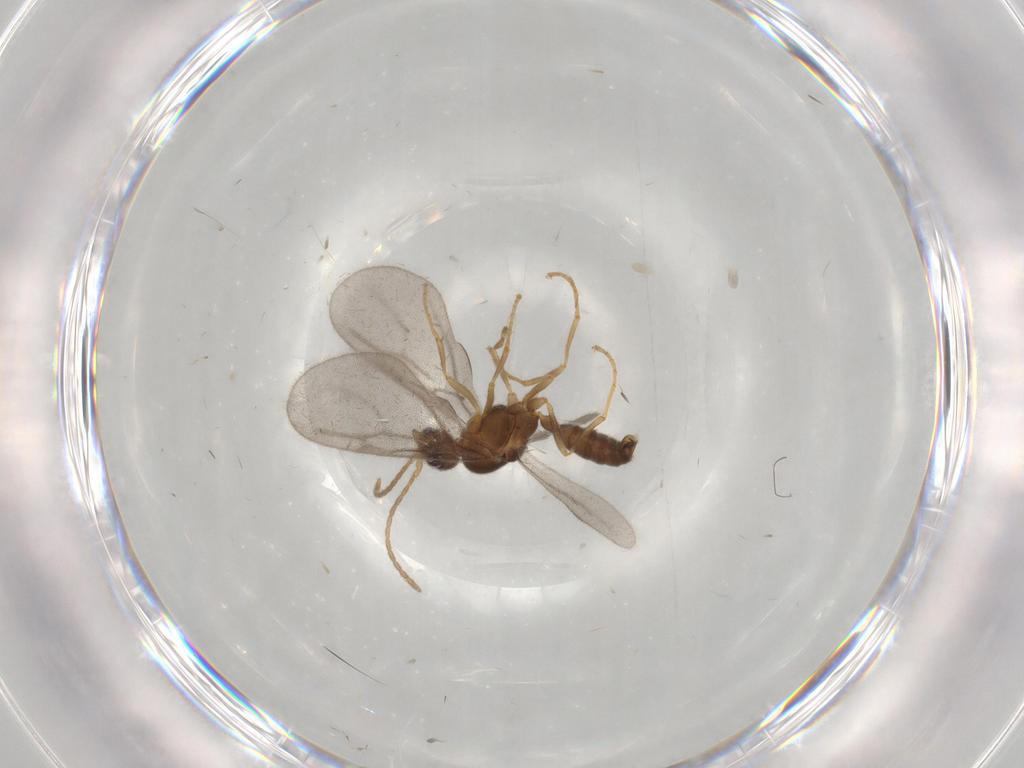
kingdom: Animalia
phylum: Arthropoda
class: Insecta
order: Hymenoptera
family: Formicidae
